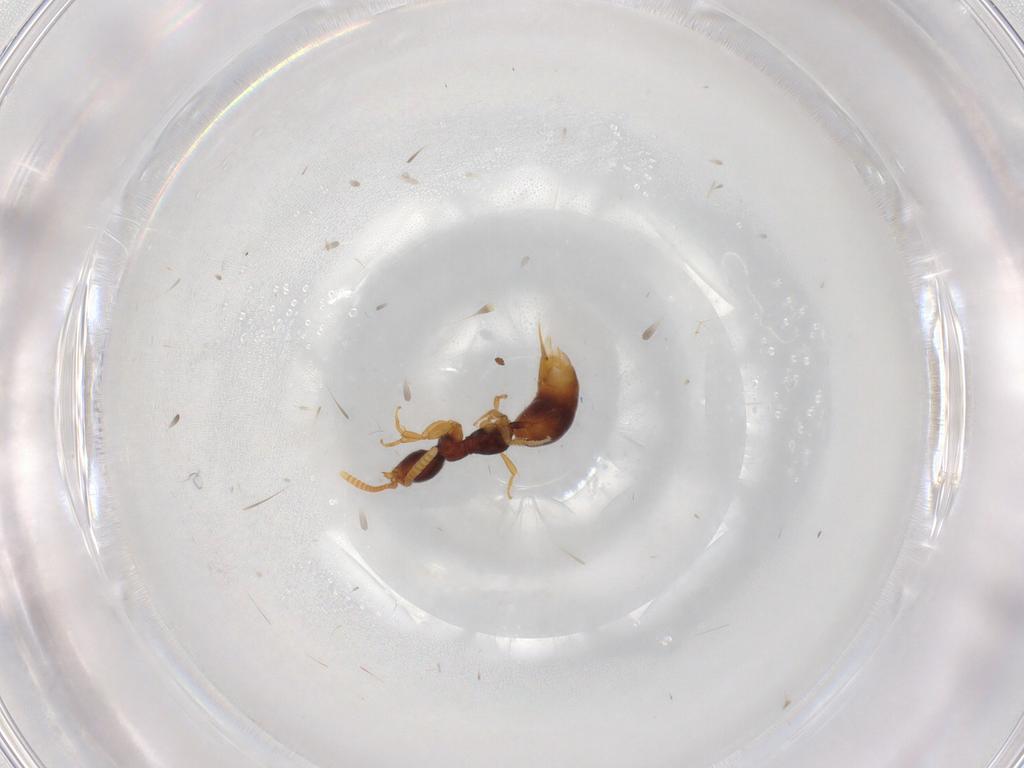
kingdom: Animalia
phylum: Arthropoda
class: Insecta
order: Hymenoptera
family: Bethylidae
